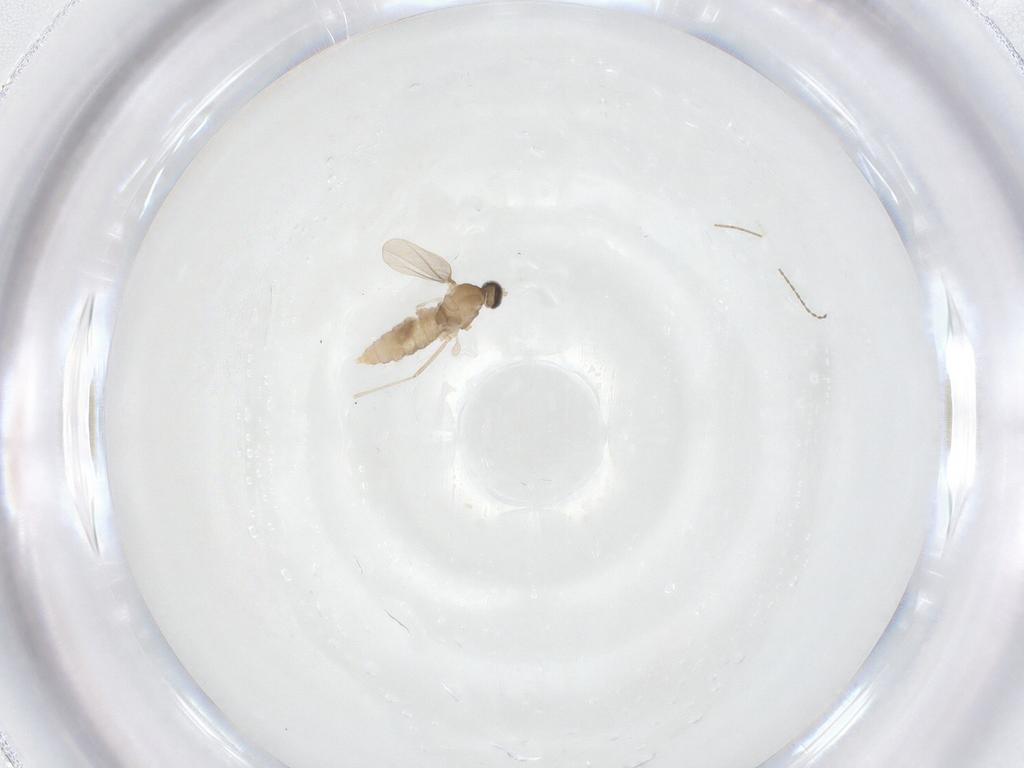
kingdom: Animalia
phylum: Arthropoda
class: Insecta
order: Diptera
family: Cecidomyiidae
